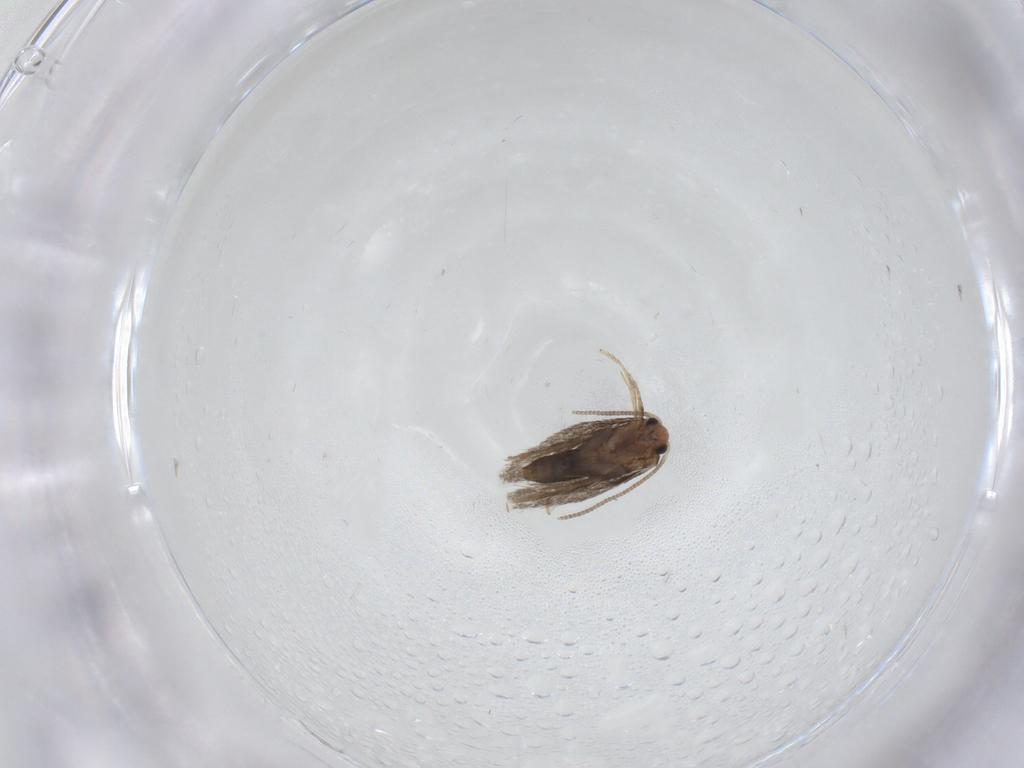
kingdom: Animalia
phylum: Arthropoda
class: Insecta
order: Lepidoptera
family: Nepticulidae
